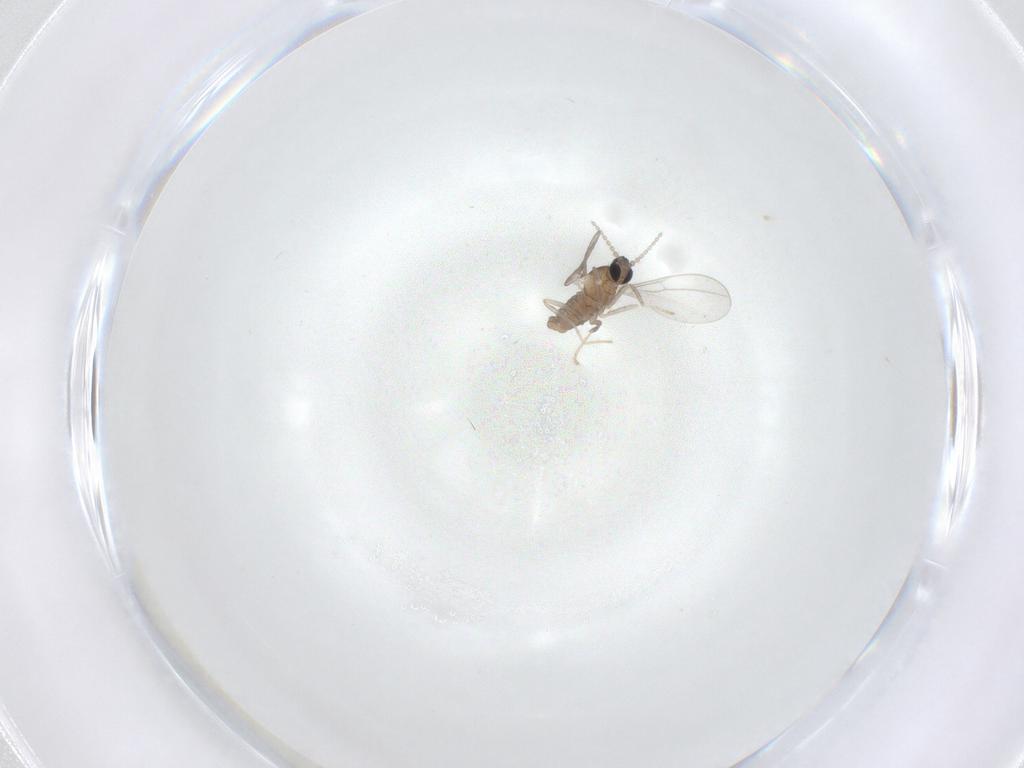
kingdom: Animalia
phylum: Arthropoda
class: Insecta
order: Diptera
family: Cecidomyiidae
